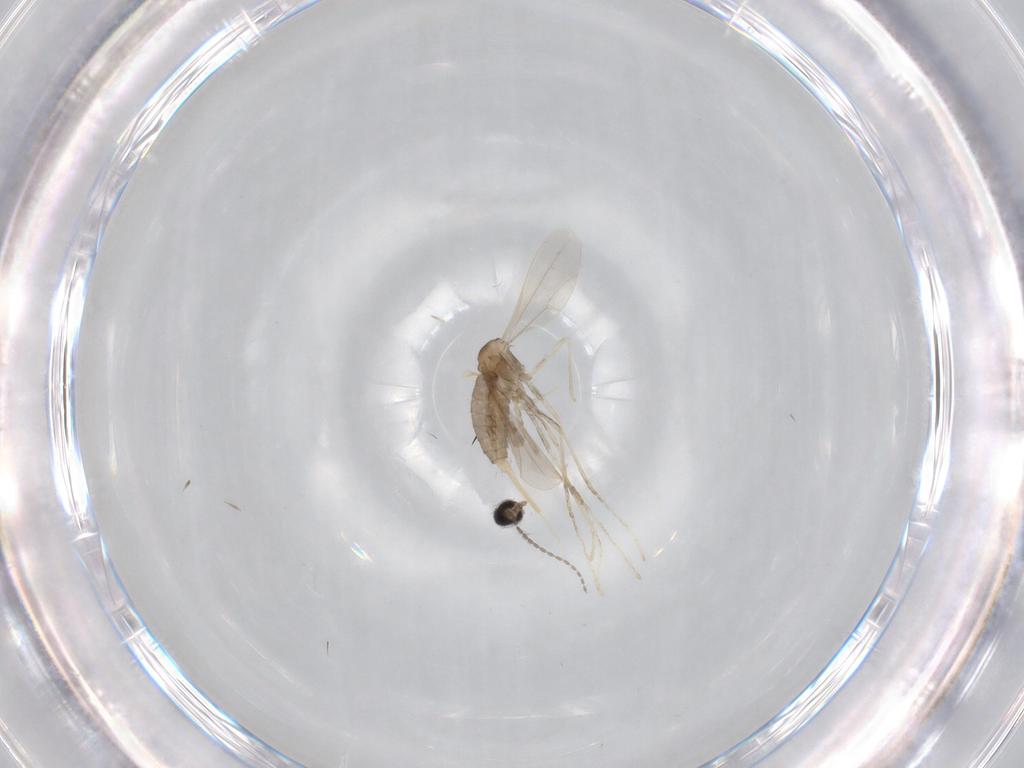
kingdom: Animalia
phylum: Arthropoda
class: Insecta
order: Diptera
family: Cecidomyiidae
